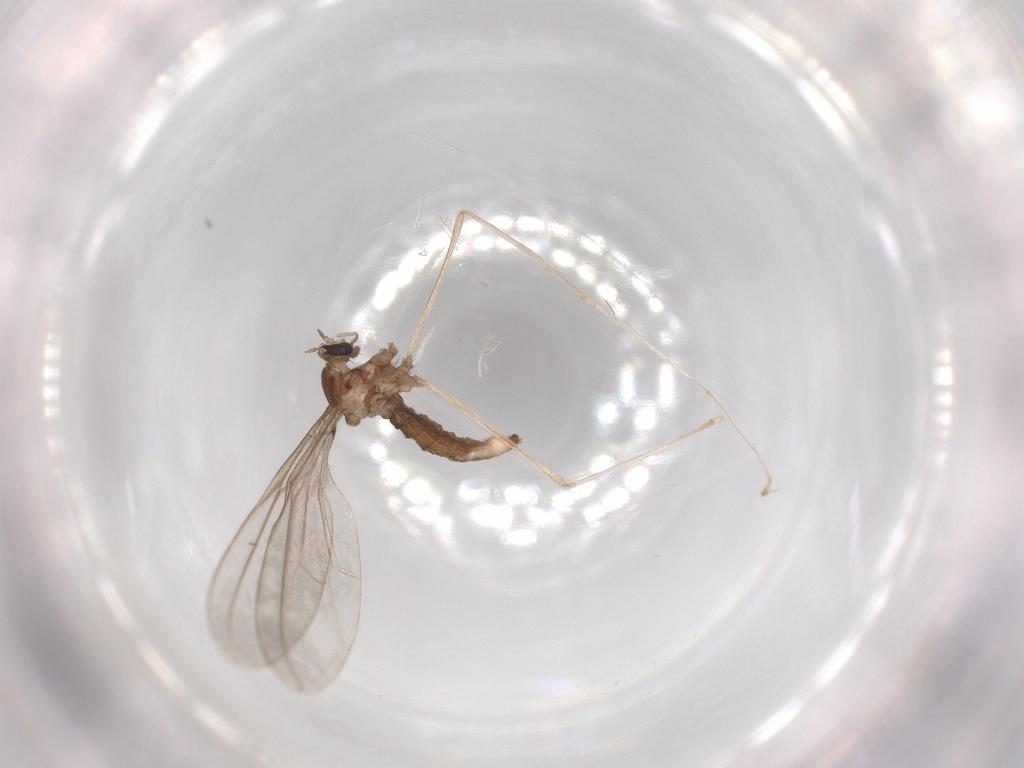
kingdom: Animalia
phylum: Arthropoda
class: Insecta
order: Diptera
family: Cecidomyiidae
